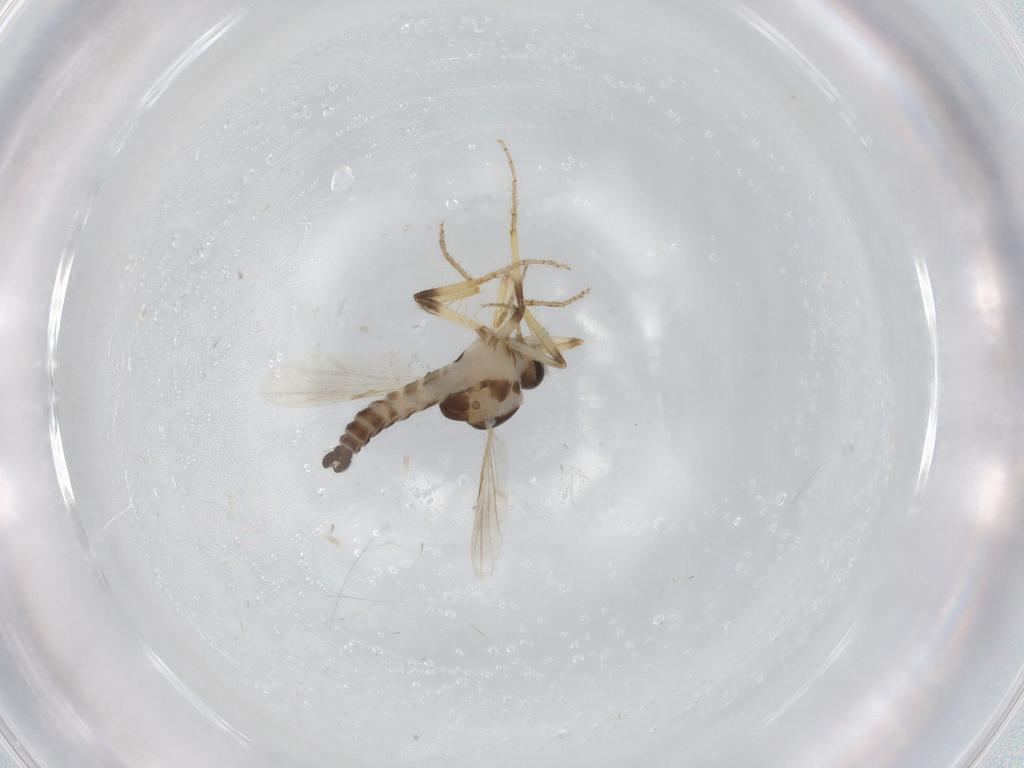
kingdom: Animalia
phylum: Arthropoda
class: Insecta
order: Diptera
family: Ceratopogonidae
